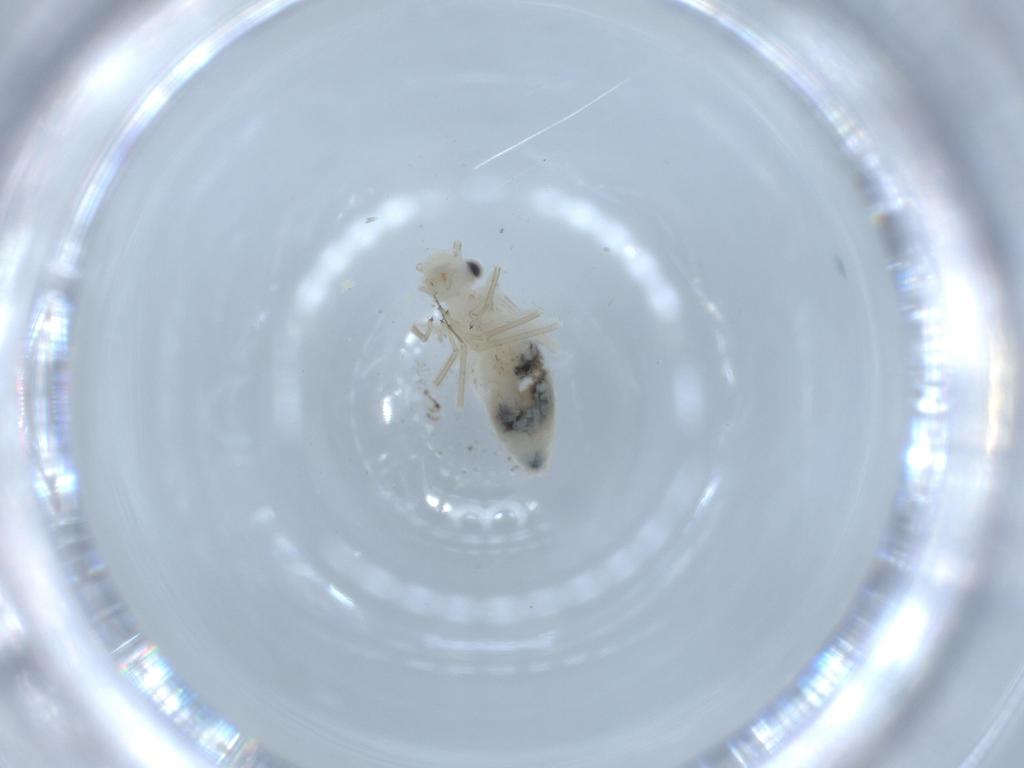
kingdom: Animalia
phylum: Arthropoda
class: Insecta
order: Psocodea
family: Caeciliusidae
